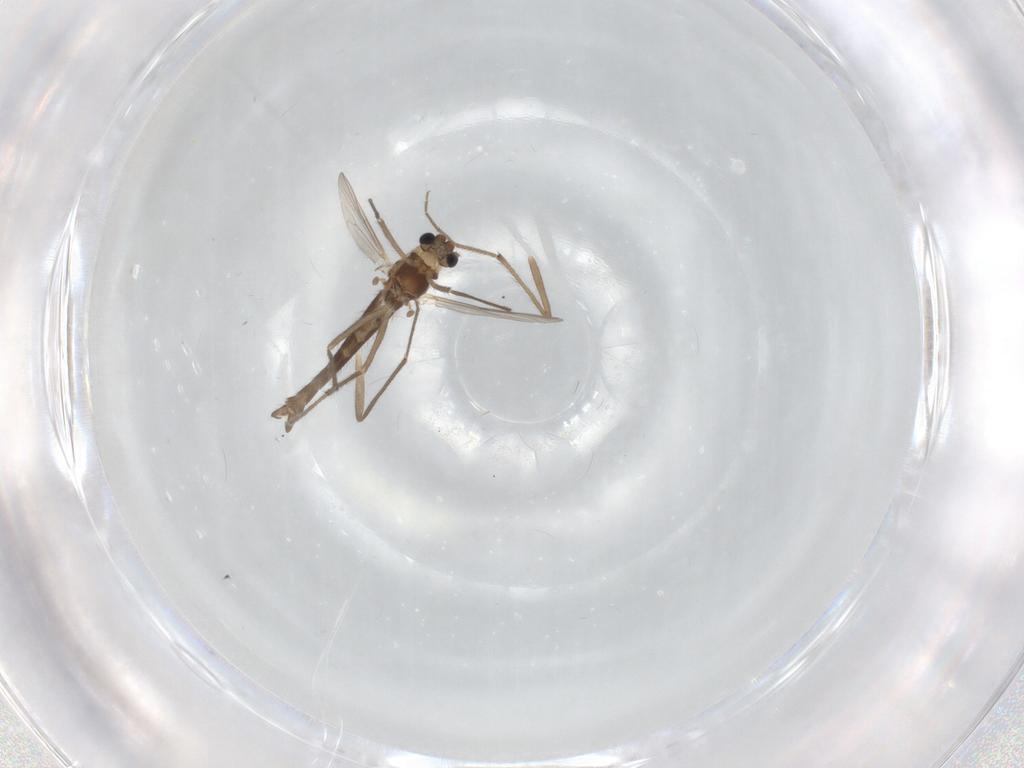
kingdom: Animalia
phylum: Arthropoda
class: Insecta
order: Diptera
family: Chironomidae
